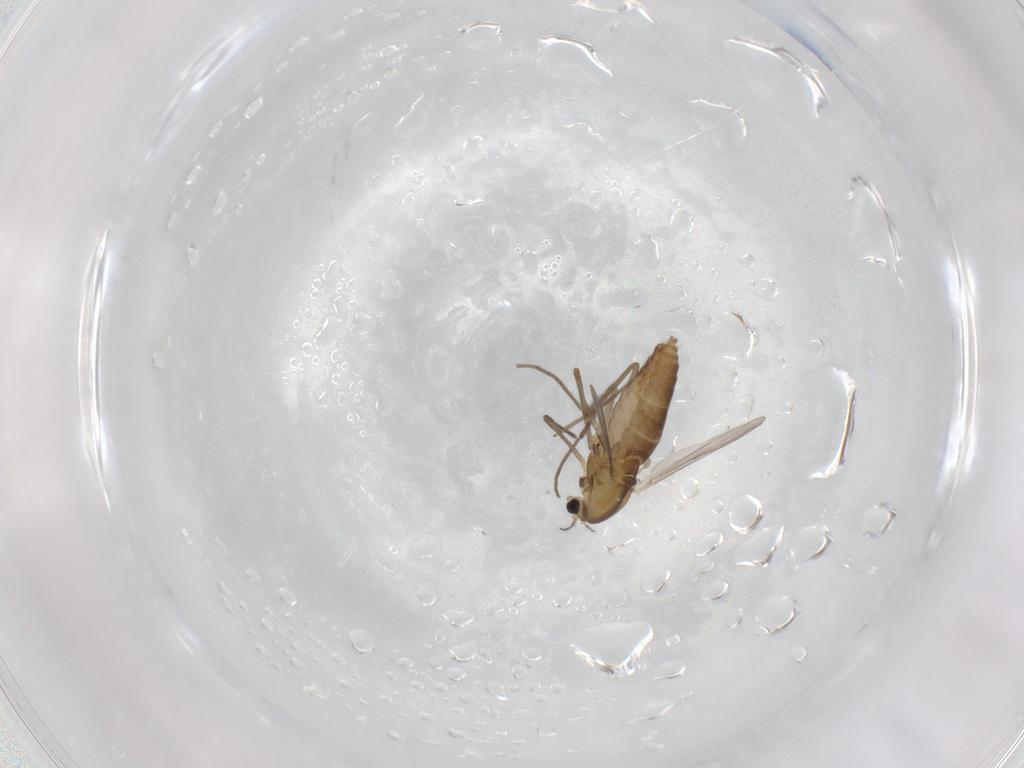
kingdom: Animalia
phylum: Arthropoda
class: Insecta
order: Diptera
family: Chironomidae
